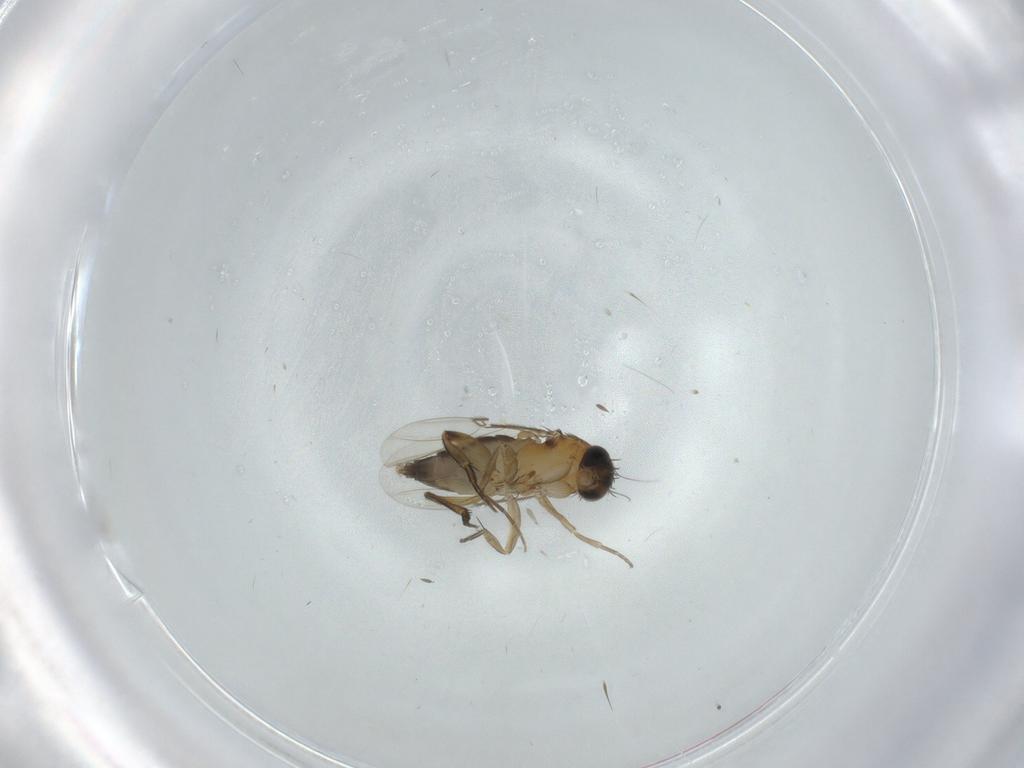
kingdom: Animalia
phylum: Arthropoda
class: Insecta
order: Diptera
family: Phoridae
